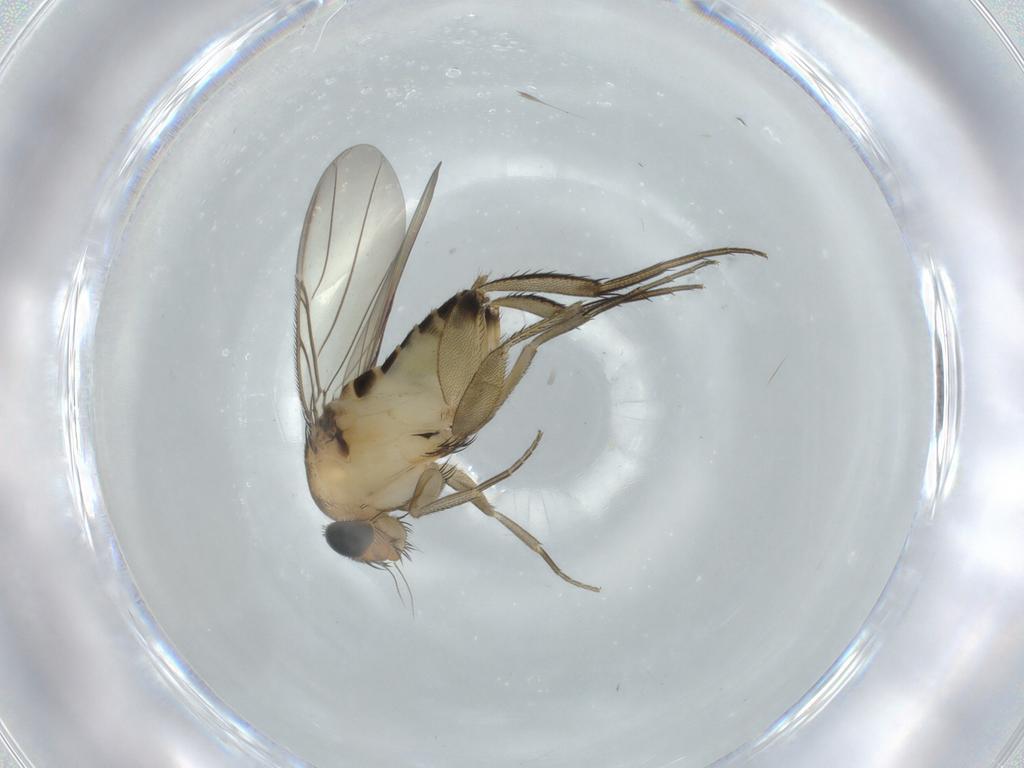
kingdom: Animalia
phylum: Arthropoda
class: Insecta
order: Diptera
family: Phoridae
